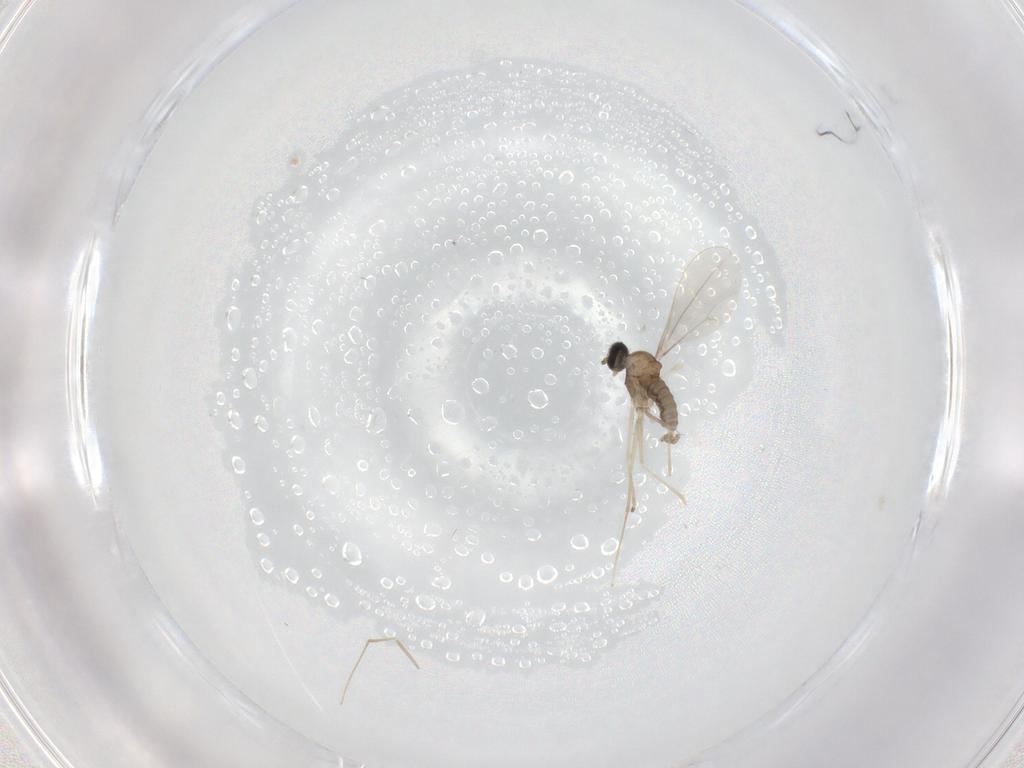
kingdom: Animalia
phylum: Arthropoda
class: Insecta
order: Diptera
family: Cecidomyiidae
